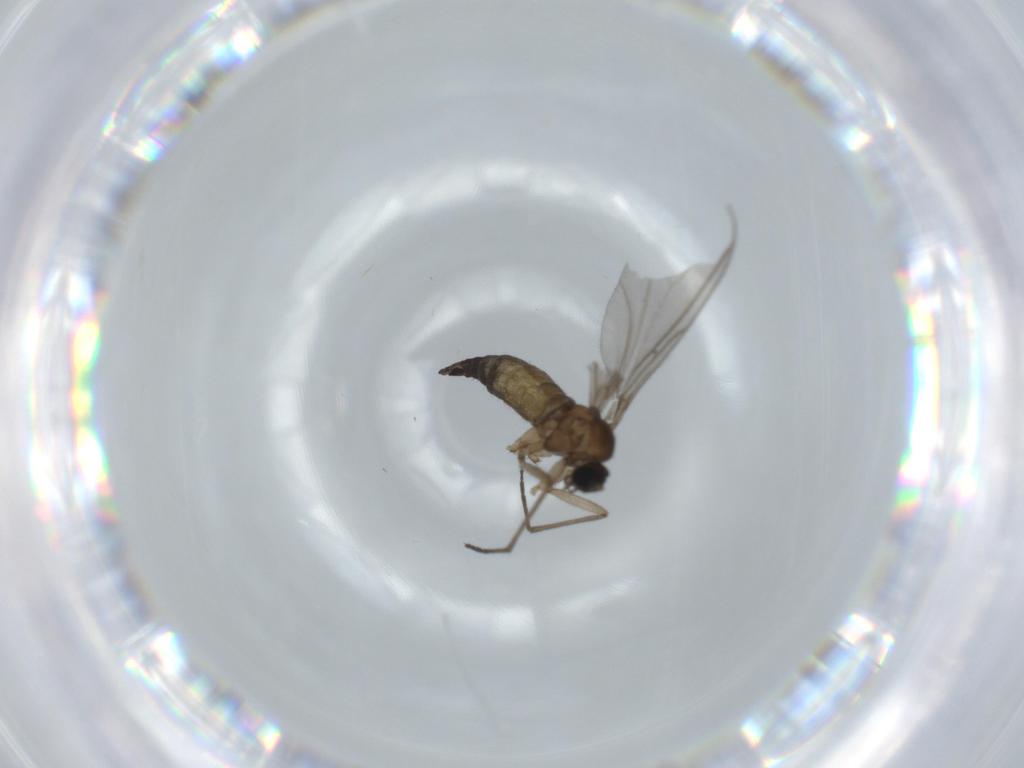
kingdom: Animalia
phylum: Arthropoda
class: Insecta
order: Diptera
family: Sciaridae
